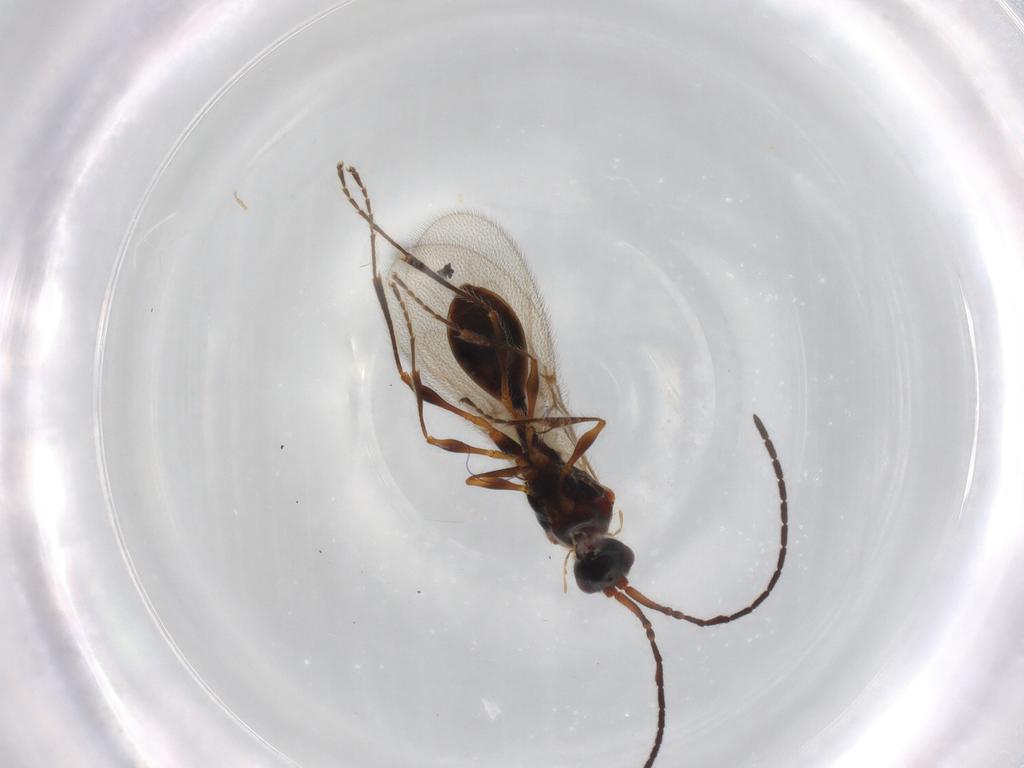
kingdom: Animalia
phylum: Arthropoda
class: Insecta
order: Hymenoptera
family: Diapriidae
